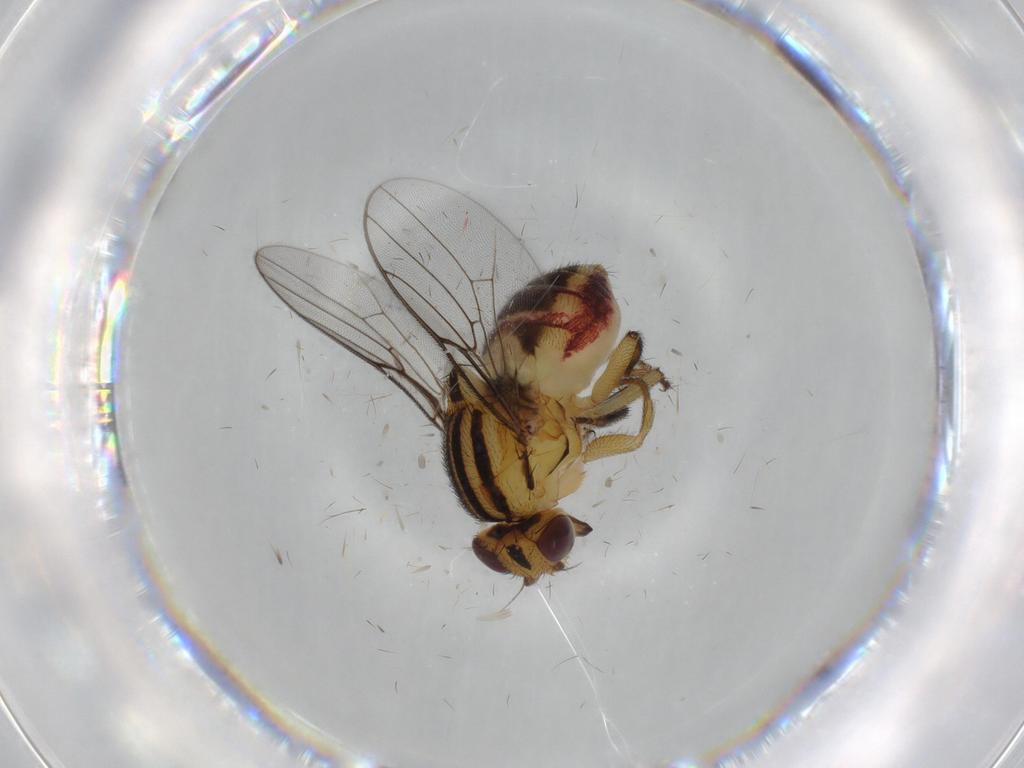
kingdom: Animalia
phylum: Arthropoda
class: Insecta
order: Diptera
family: Chloropidae
